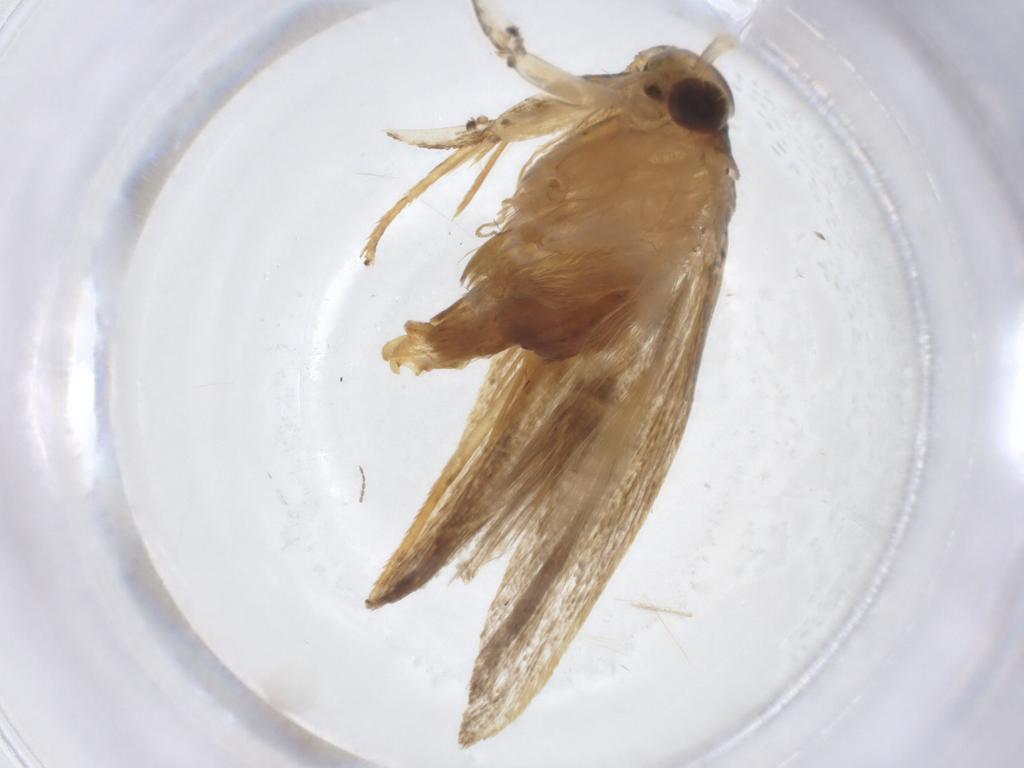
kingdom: Animalia
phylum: Arthropoda
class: Insecta
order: Lepidoptera
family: Lecithoceridae
